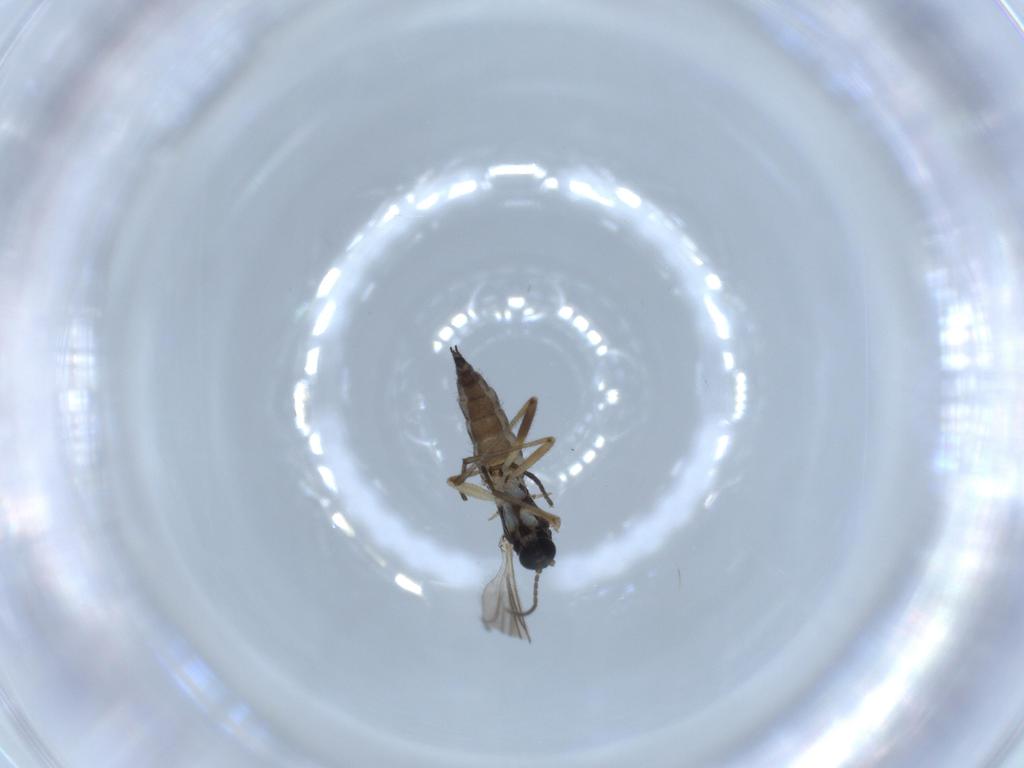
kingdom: Animalia
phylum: Arthropoda
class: Insecta
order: Diptera
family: Sciaridae
